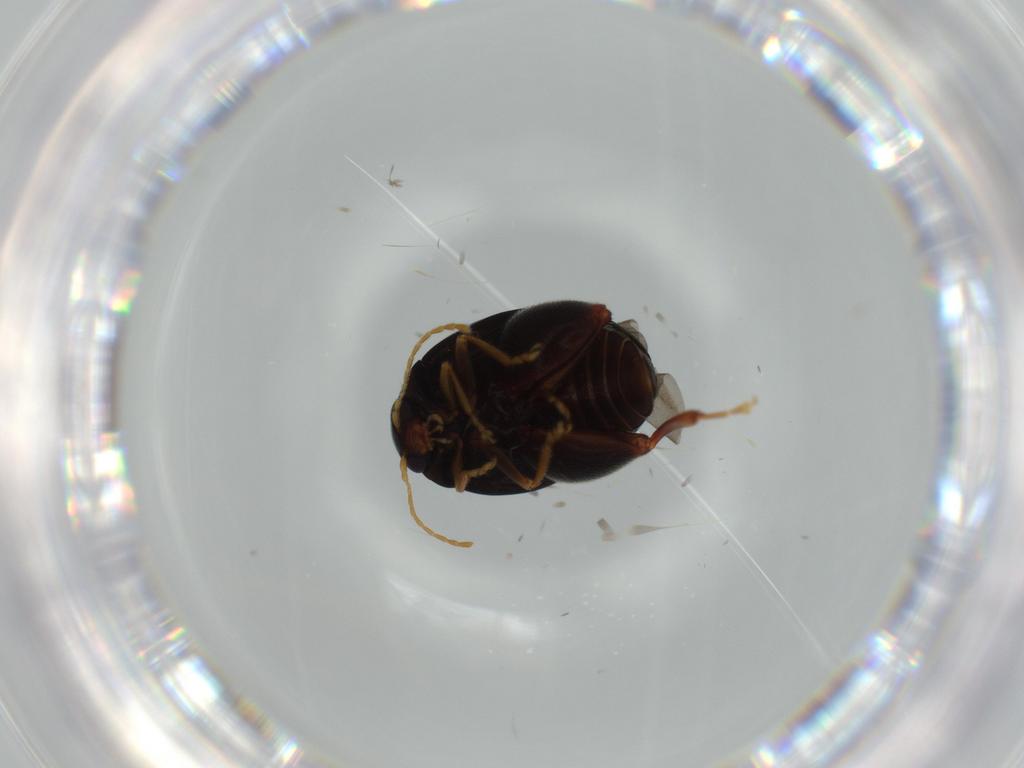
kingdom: Animalia
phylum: Arthropoda
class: Insecta
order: Coleoptera
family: Chrysomelidae
